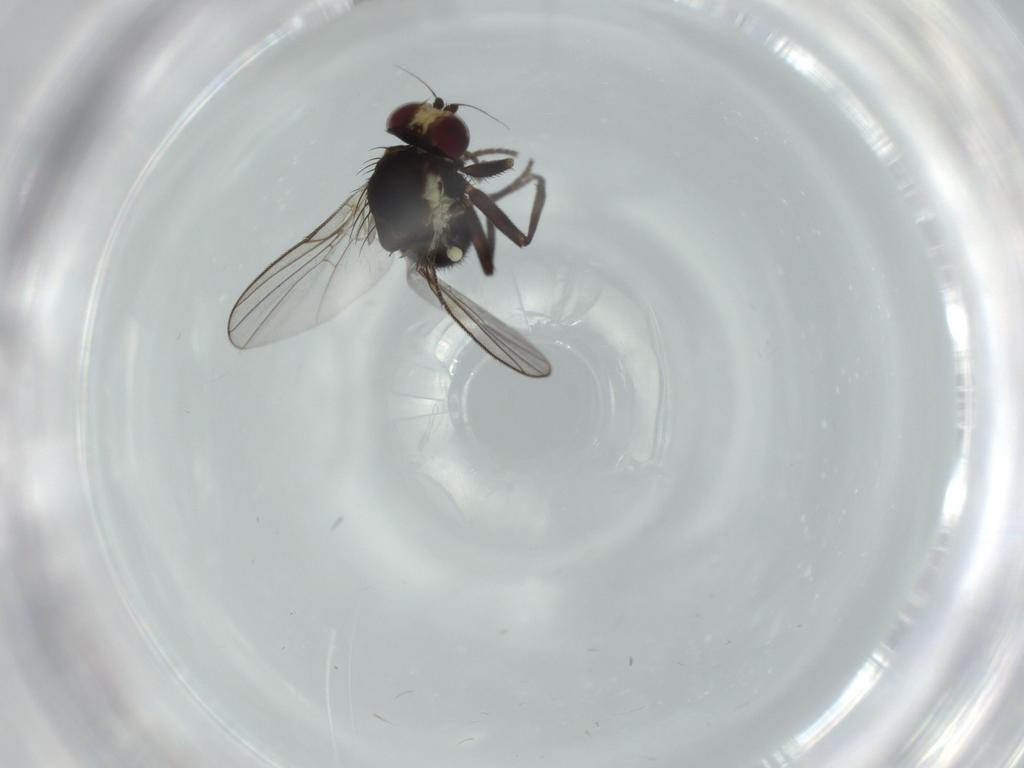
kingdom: Animalia
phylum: Arthropoda
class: Insecta
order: Diptera
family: Agromyzidae
